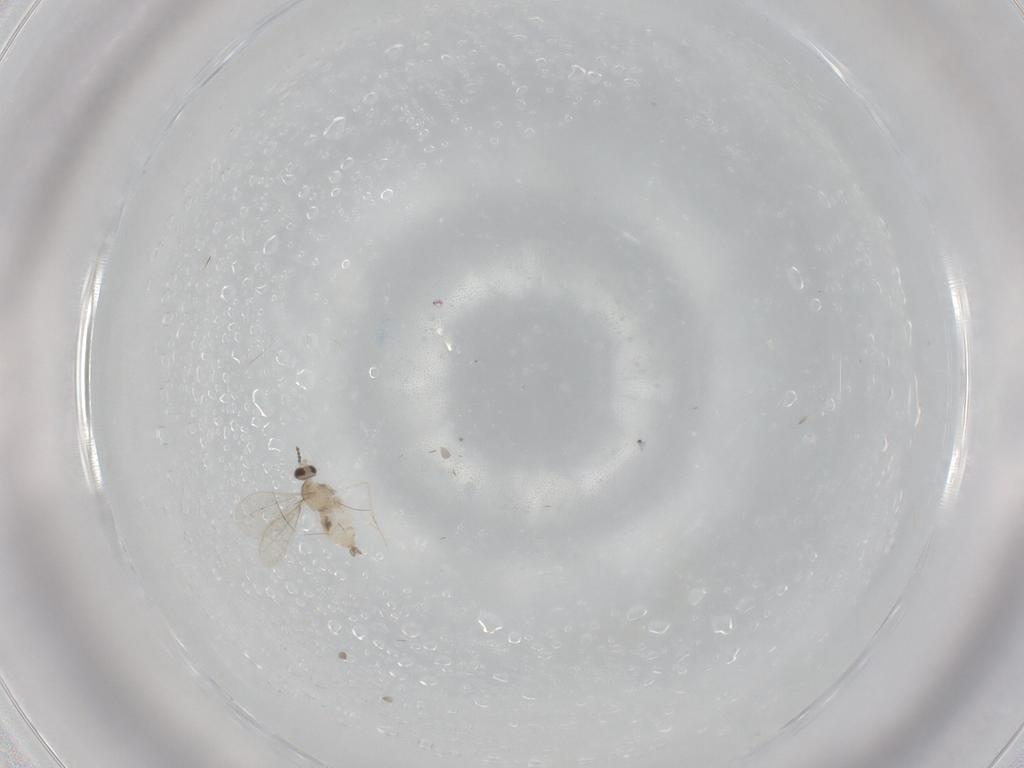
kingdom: Animalia
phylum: Arthropoda
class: Insecta
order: Diptera
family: Cecidomyiidae
